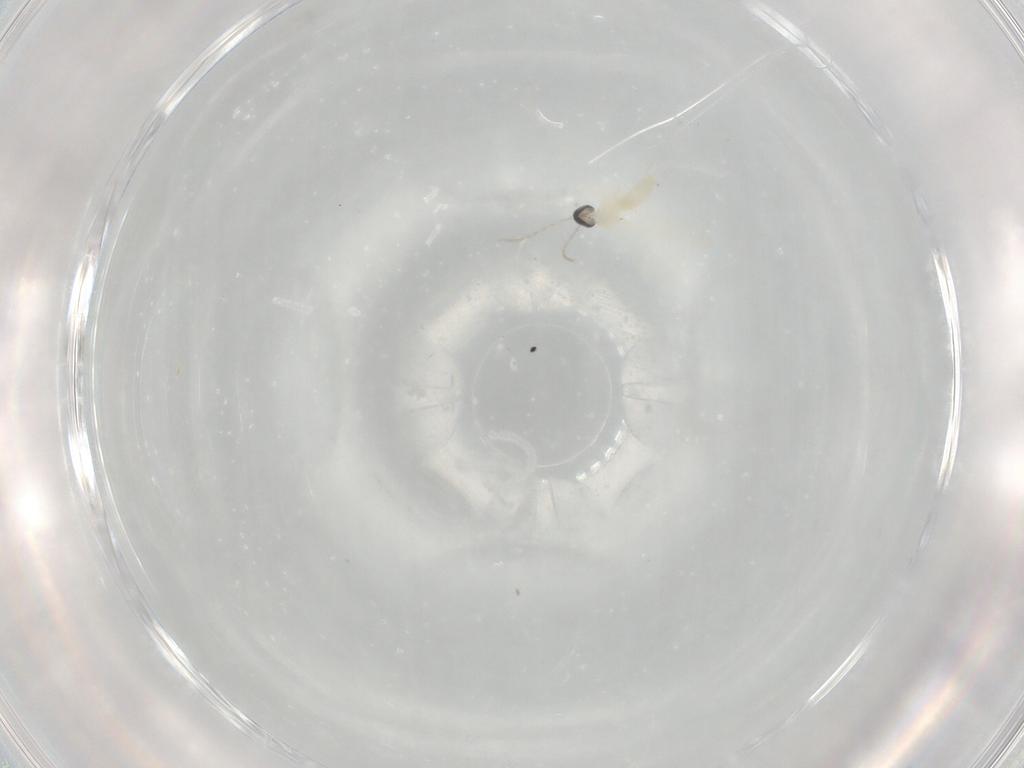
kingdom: Animalia
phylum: Arthropoda
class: Insecta
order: Diptera
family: Cecidomyiidae
